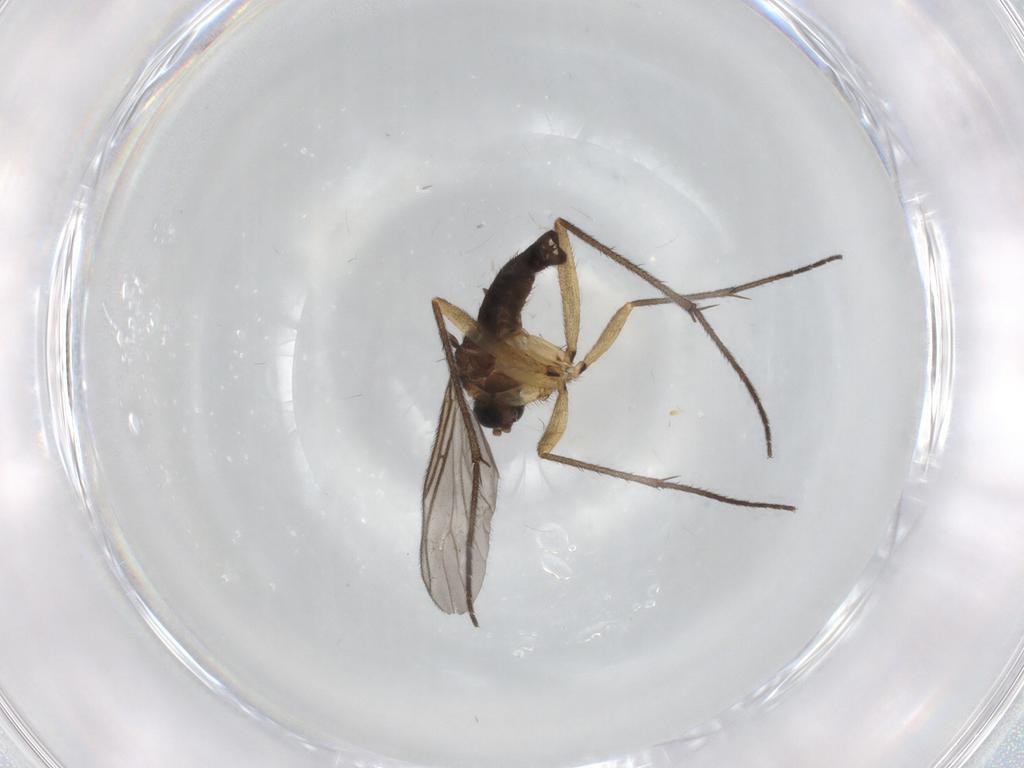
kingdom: Animalia
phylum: Arthropoda
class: Insecta
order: Diptera
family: Sciaridae
